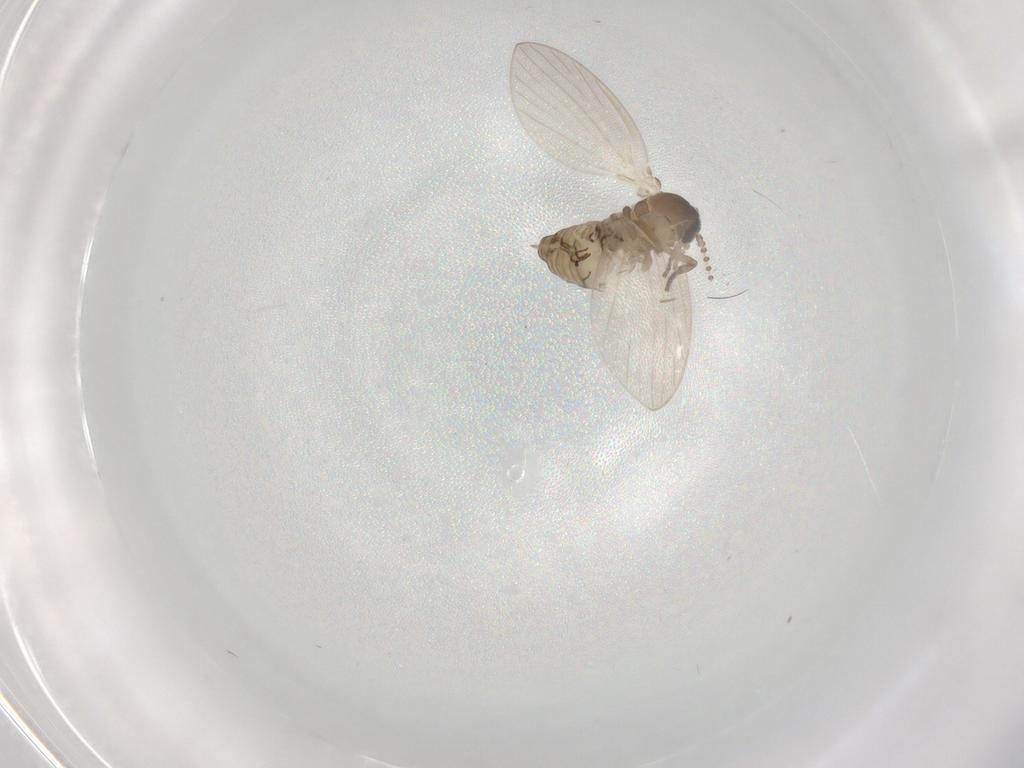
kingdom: Animalia
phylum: Arthropoda
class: Insecta
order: Diptera
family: Psychodidae
